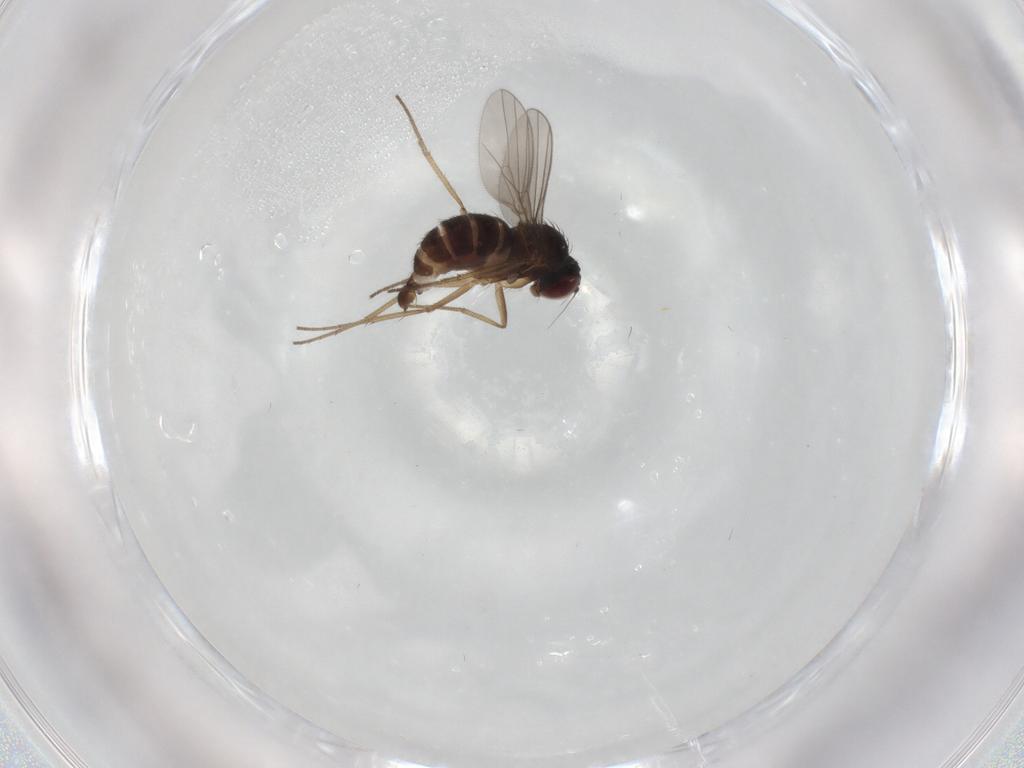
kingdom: Animalia
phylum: Arthropoda
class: Insecta
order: Diptera
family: Dolichopodidae
